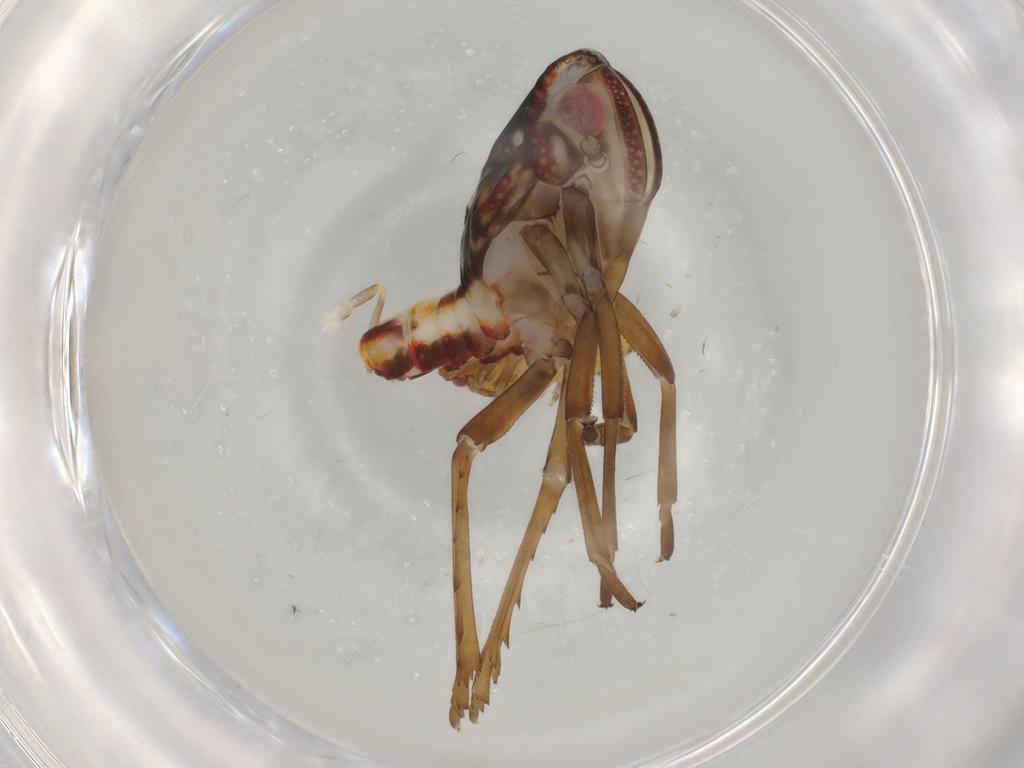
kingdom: Animalia
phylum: Arthropoda
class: Insecta
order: Hemiptera
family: Flatidae
